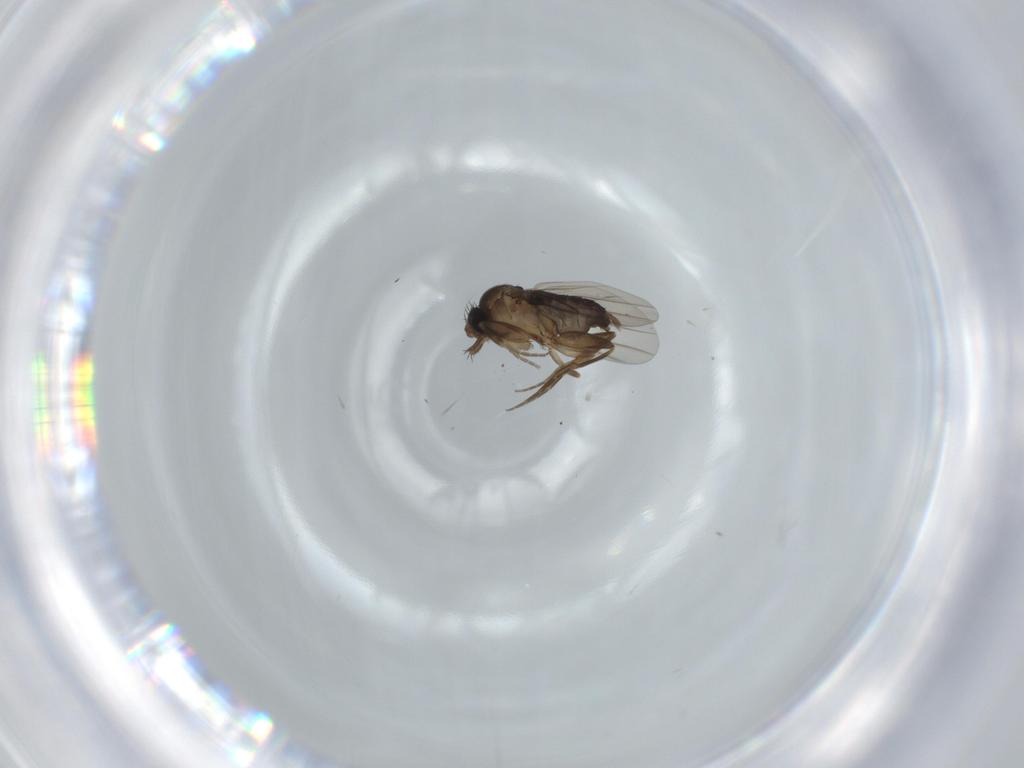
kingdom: Animalia
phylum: Arthropoda
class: Insecta
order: Diptera
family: Phoridae
